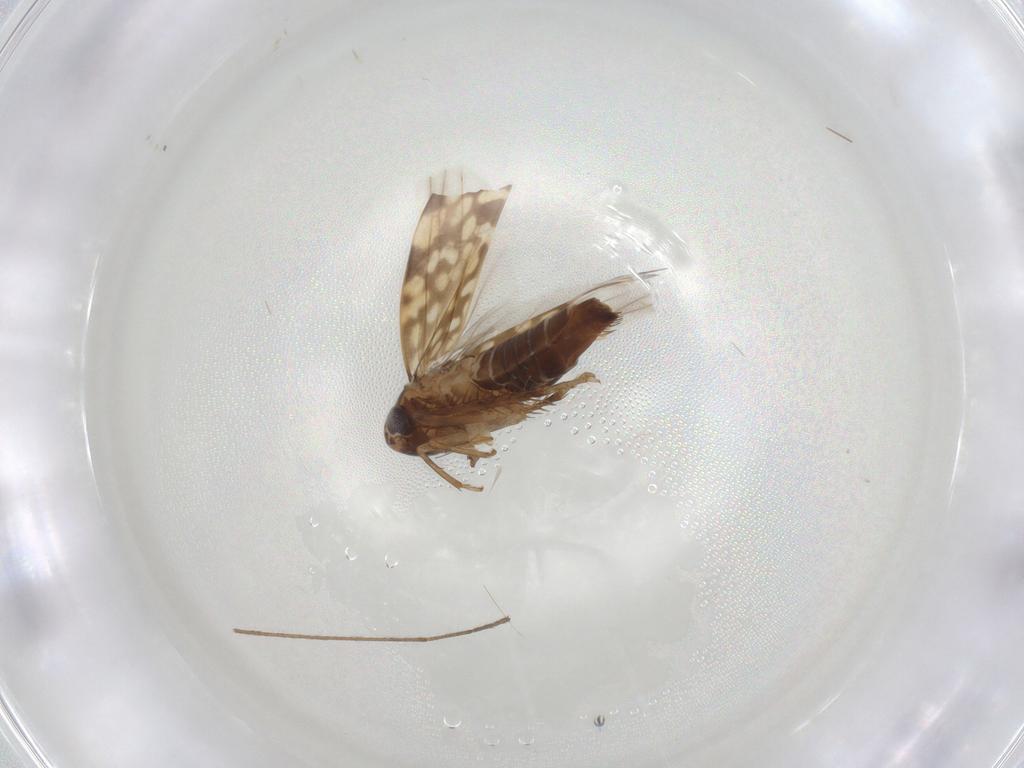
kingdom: Animalia
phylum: Arthropoda
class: Insecta
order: Hemiptera
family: Cicadellidae
